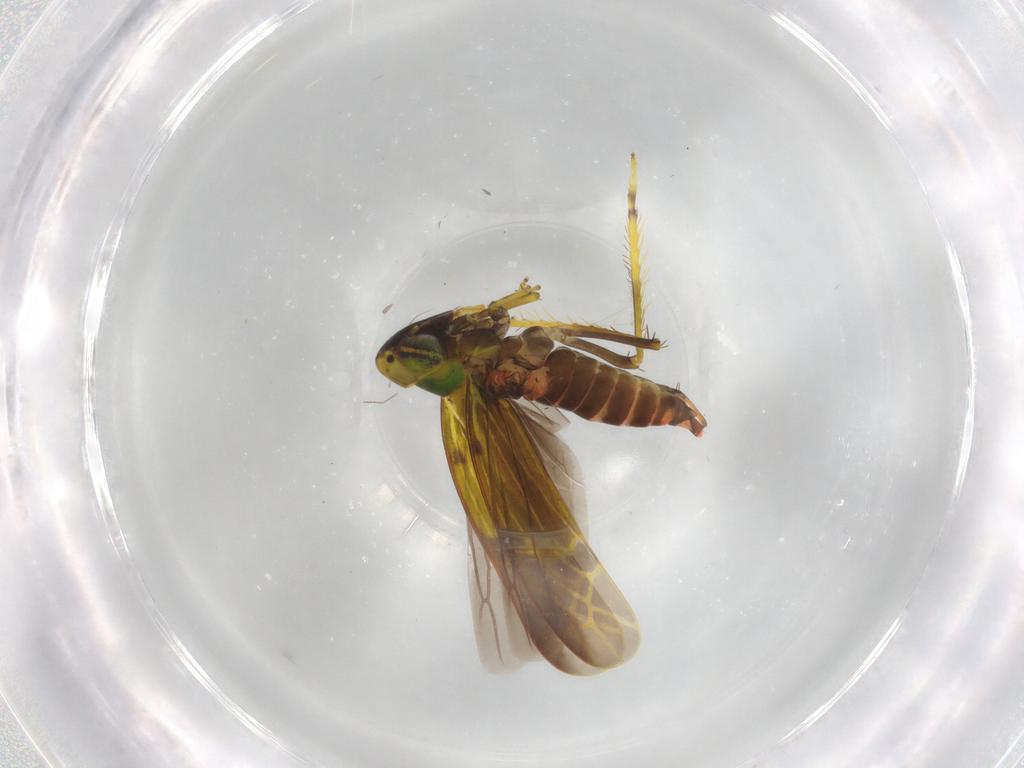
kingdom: Animalia
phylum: Arthropoda
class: Insecta
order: Hemiptera
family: Cicadellidae
